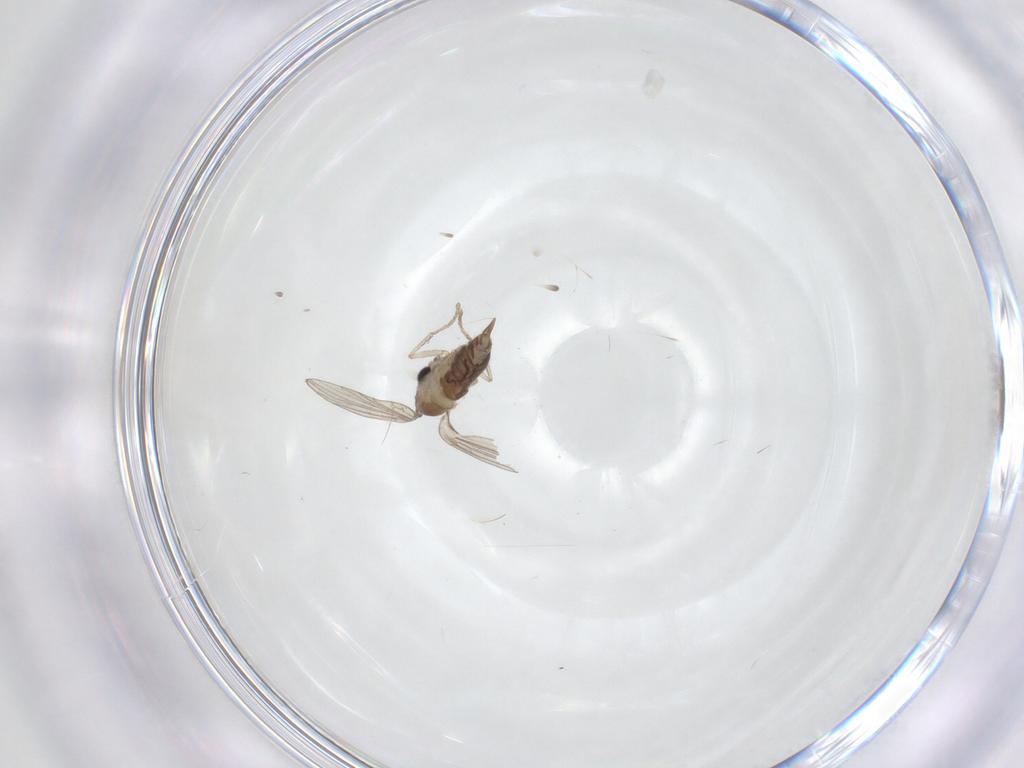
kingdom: Animalia
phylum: Arthropoda
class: Insecta
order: Diptera
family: Psychodidae
